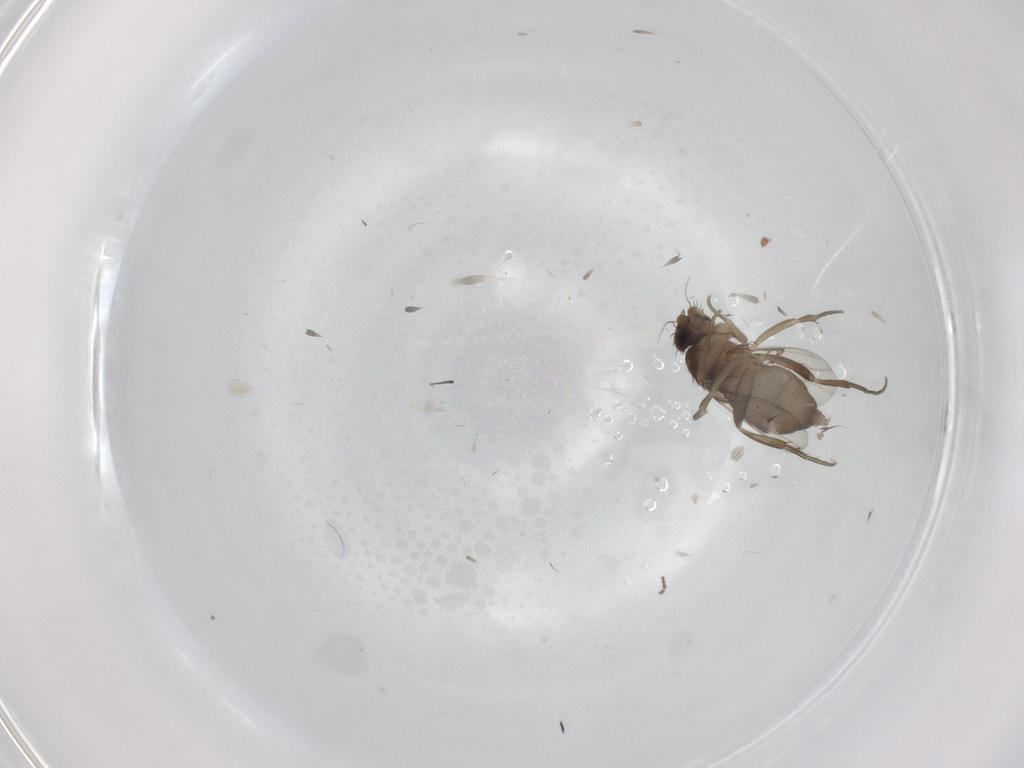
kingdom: Animalia
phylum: Arthropoda
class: Insecta
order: Diptera
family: Phoridae
